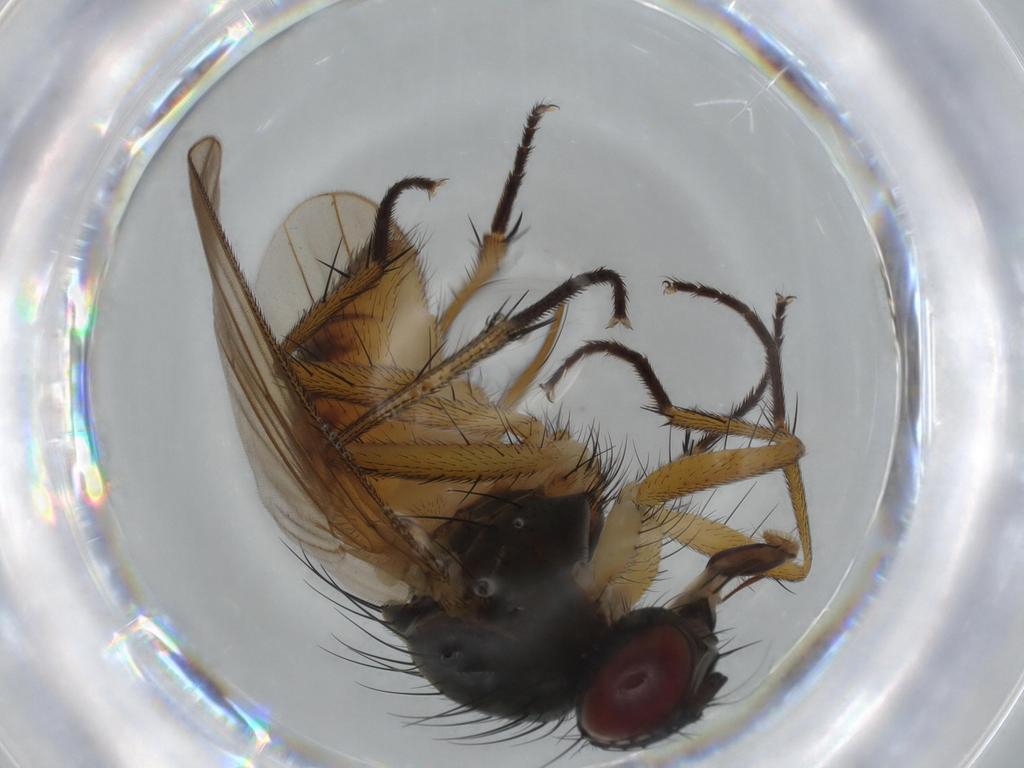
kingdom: Animalia
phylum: Arthropoda
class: Insecta
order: Diptera
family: Muscidae
